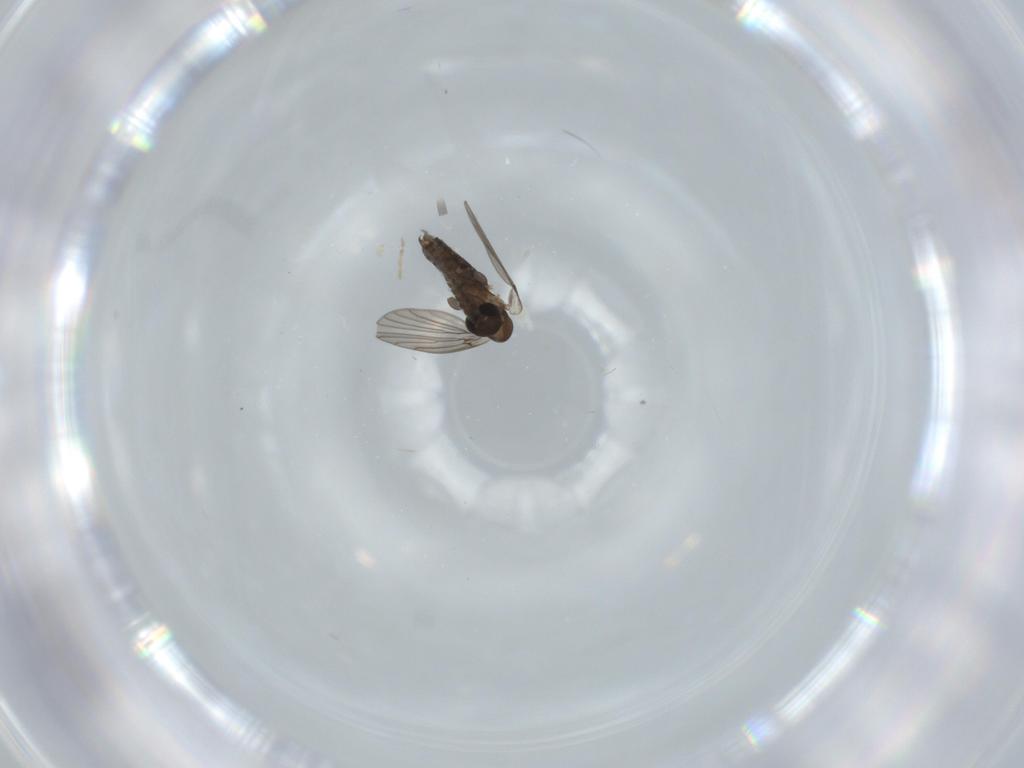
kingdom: Animalia
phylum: Arthropoda
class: Insecta
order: Diptera
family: Psychodidae
